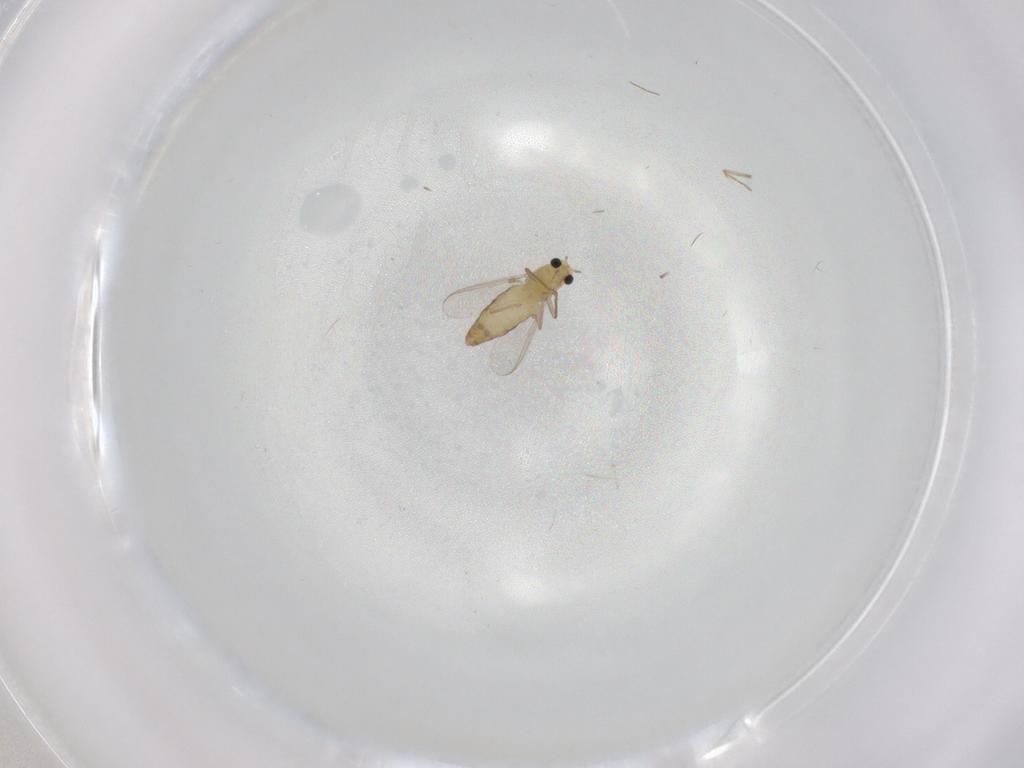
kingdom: Animalia
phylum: Arthropoda
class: Insecta
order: Diptera
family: Chironomidae
